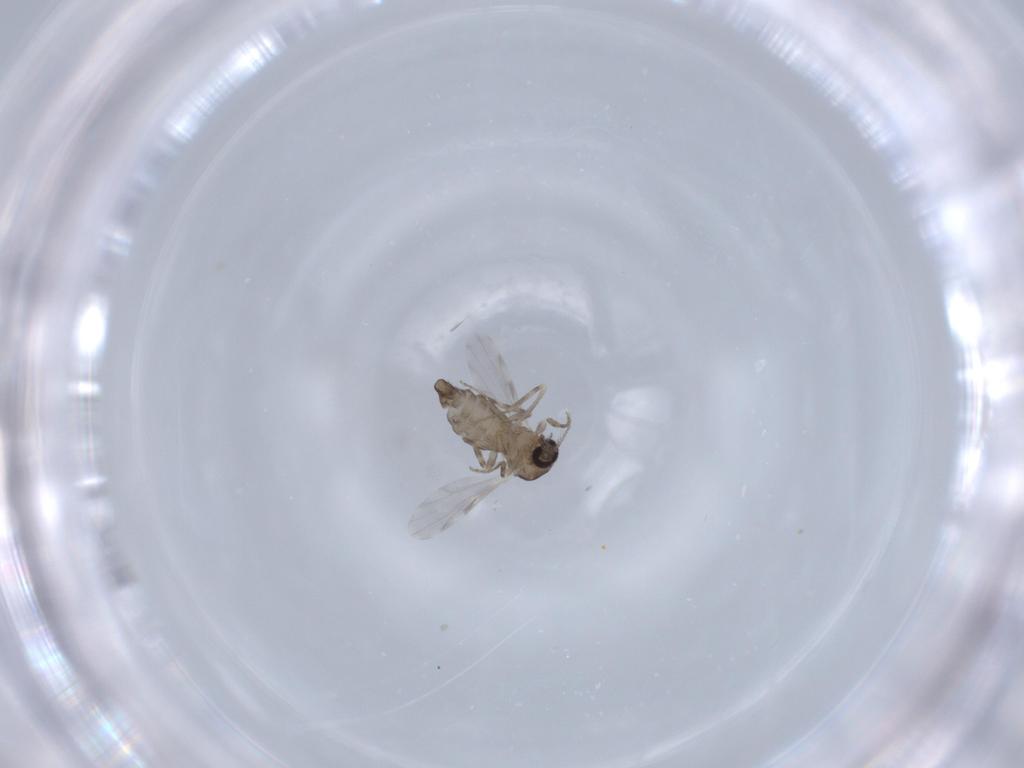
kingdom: Animalia
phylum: Arthropoda
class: Insecta
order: Diptera
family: Ceratopogonidae
